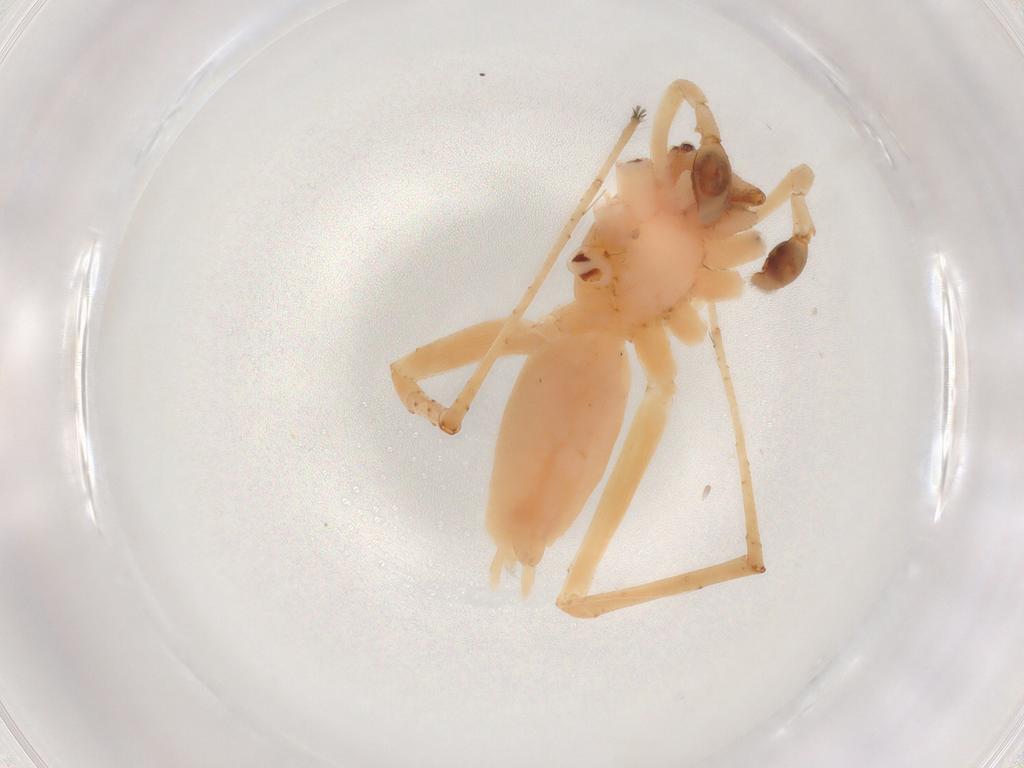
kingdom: Animalia
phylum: Arthropoda
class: Arachnida
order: Araneae
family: Anyphaenidae
